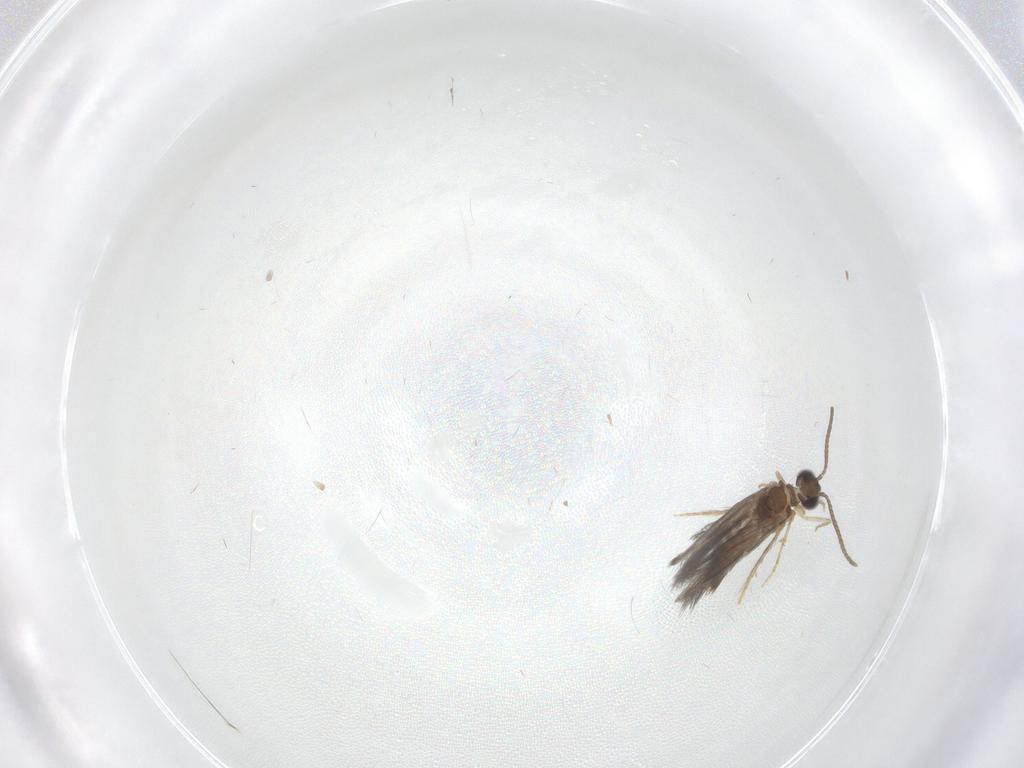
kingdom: Animalia
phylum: Arthropoda
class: Insecta
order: Trichoptera
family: Hydroptilidae
